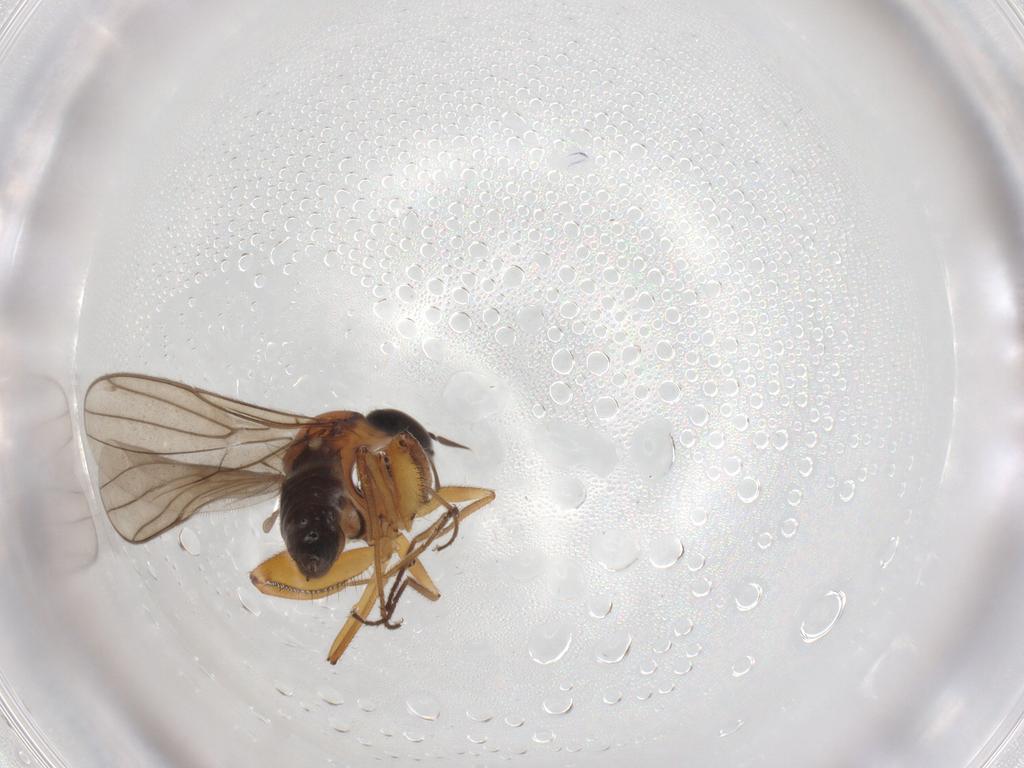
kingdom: Animalia
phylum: Arthropoda
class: Insecta
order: Diptera
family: Hybotidae
